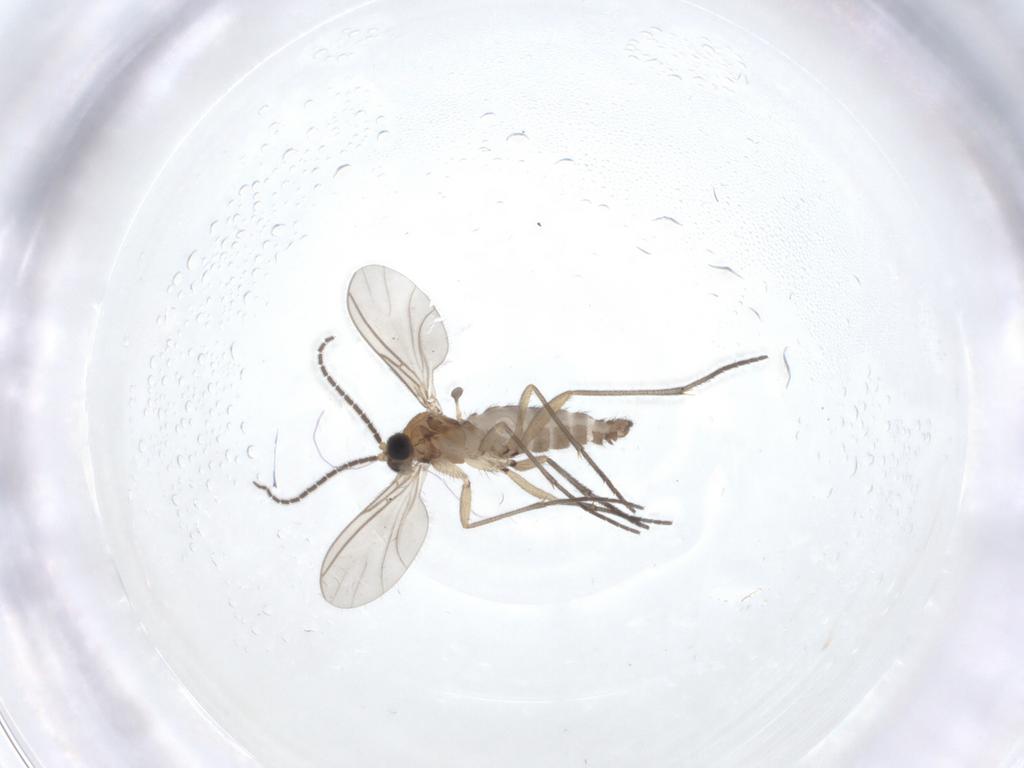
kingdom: Animalia
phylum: Arthropoda
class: Insecta
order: Diptera
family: Sciaridae
